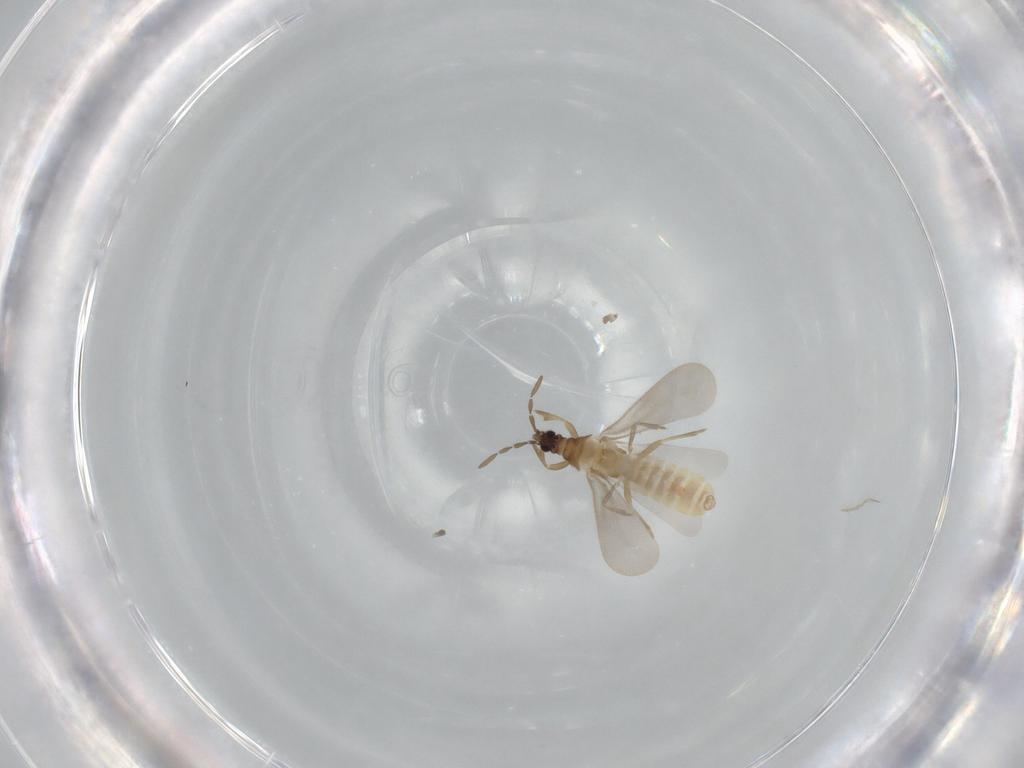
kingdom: Animalia
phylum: Arthropoda
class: Insecta
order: Hemiptera
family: Enicocephalidae
